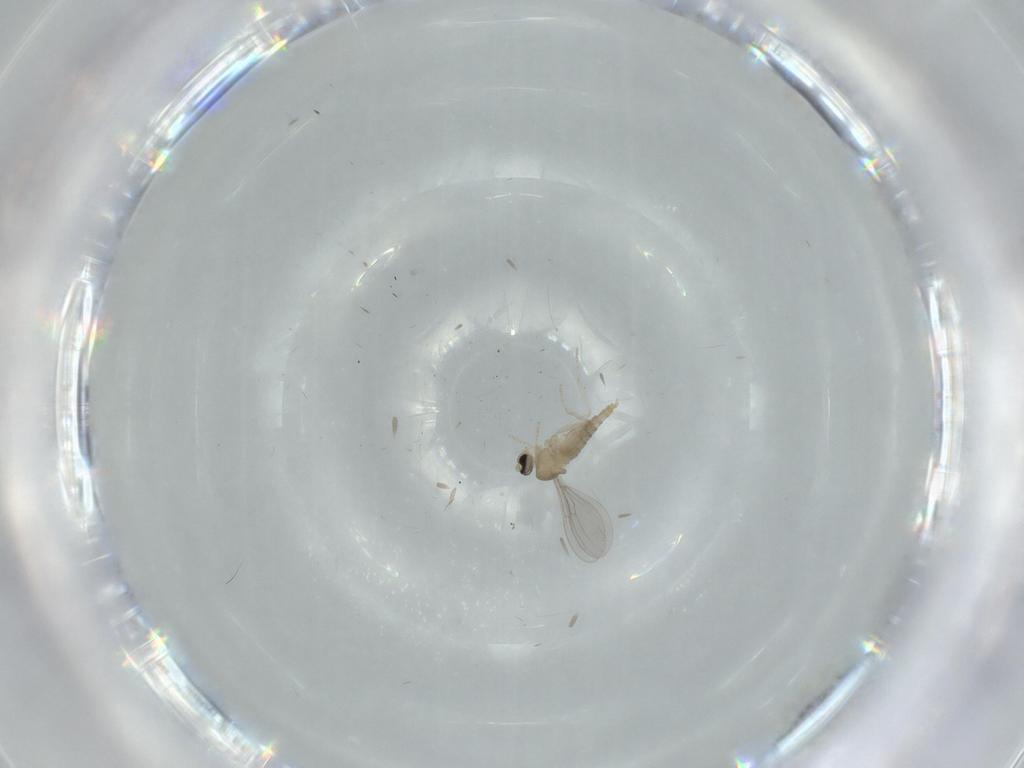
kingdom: Animalia
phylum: Arthropoda
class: Insecta
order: Diptera
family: Cecidomyiidae
